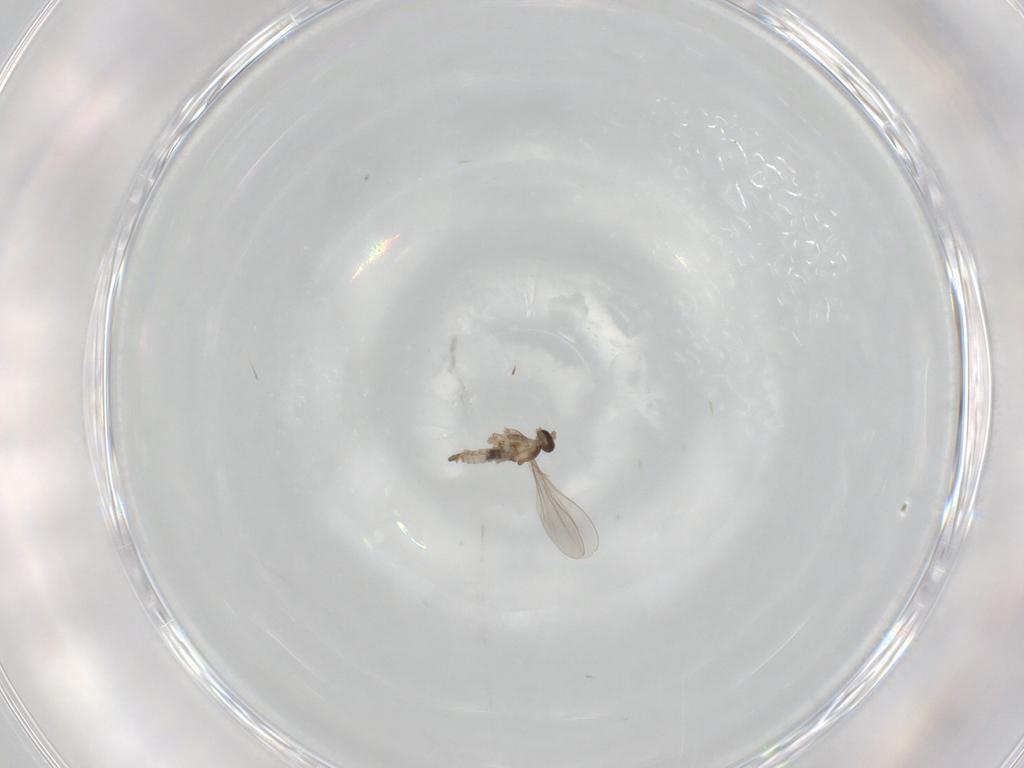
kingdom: Animalia
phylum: Arthropoda
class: Insecta
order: Diptera
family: Cecidomyiidae
